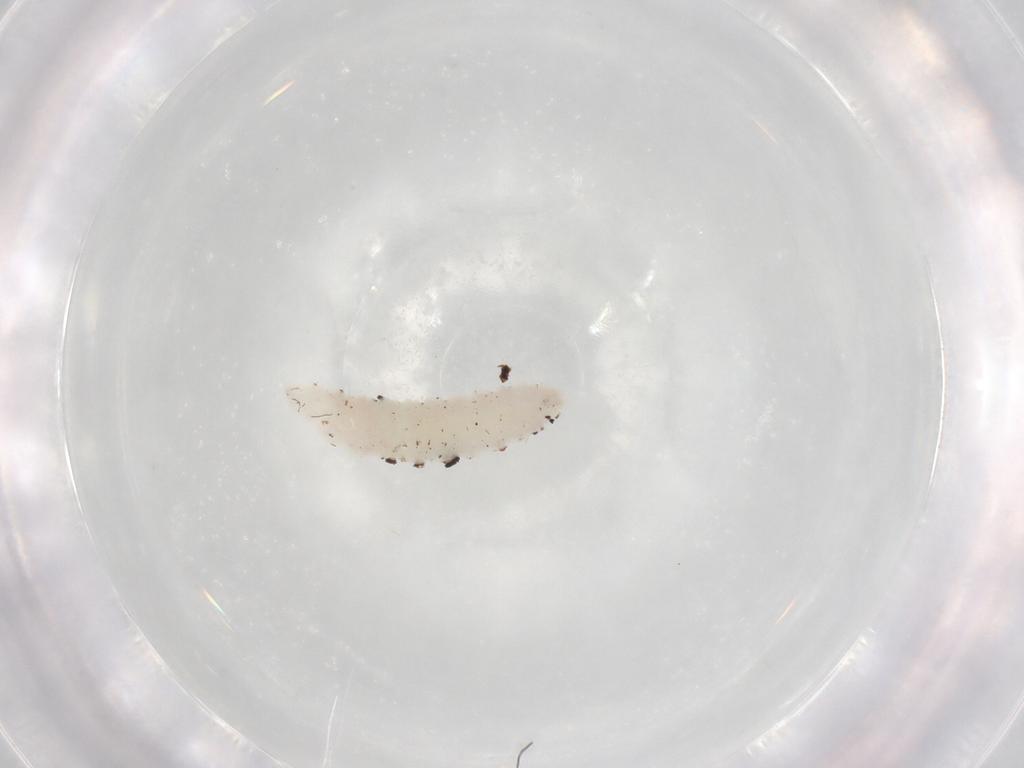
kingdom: Animalia
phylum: Arthropoda
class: Insecta
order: Diptera
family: Cecidomyiidae
